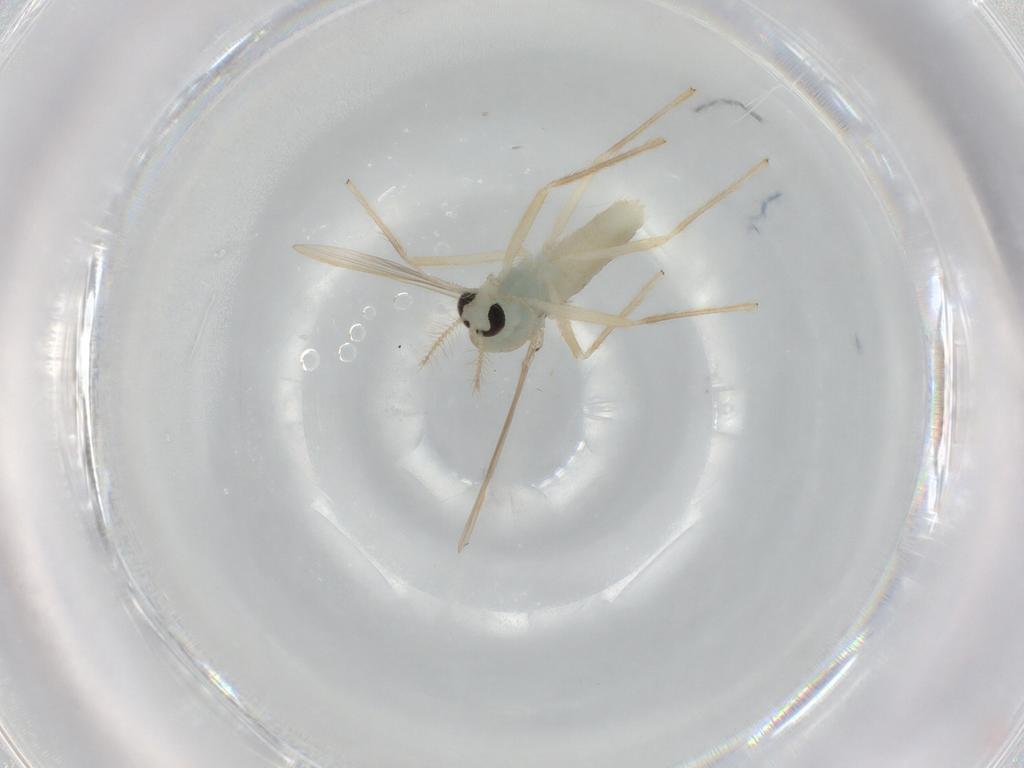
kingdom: Animalia
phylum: Arthropoda
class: Insecta
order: Diptera
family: Chironomidae
